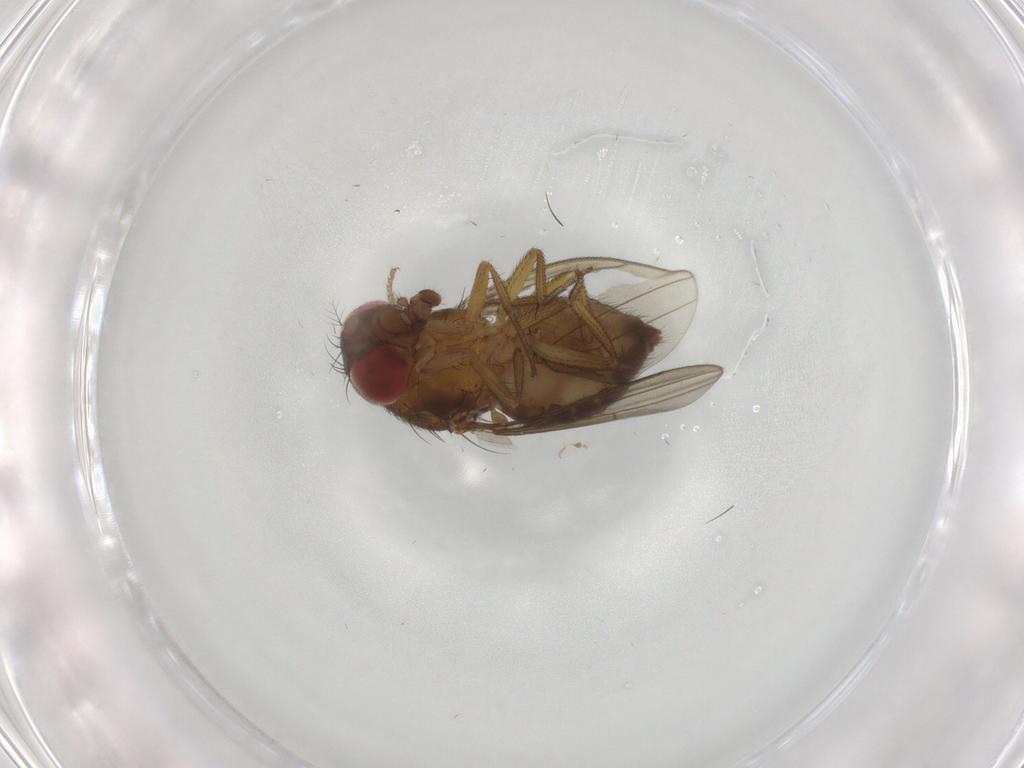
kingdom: Animalia
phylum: Arthropoda
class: Insecta
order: Diptera
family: Drosophilidae
